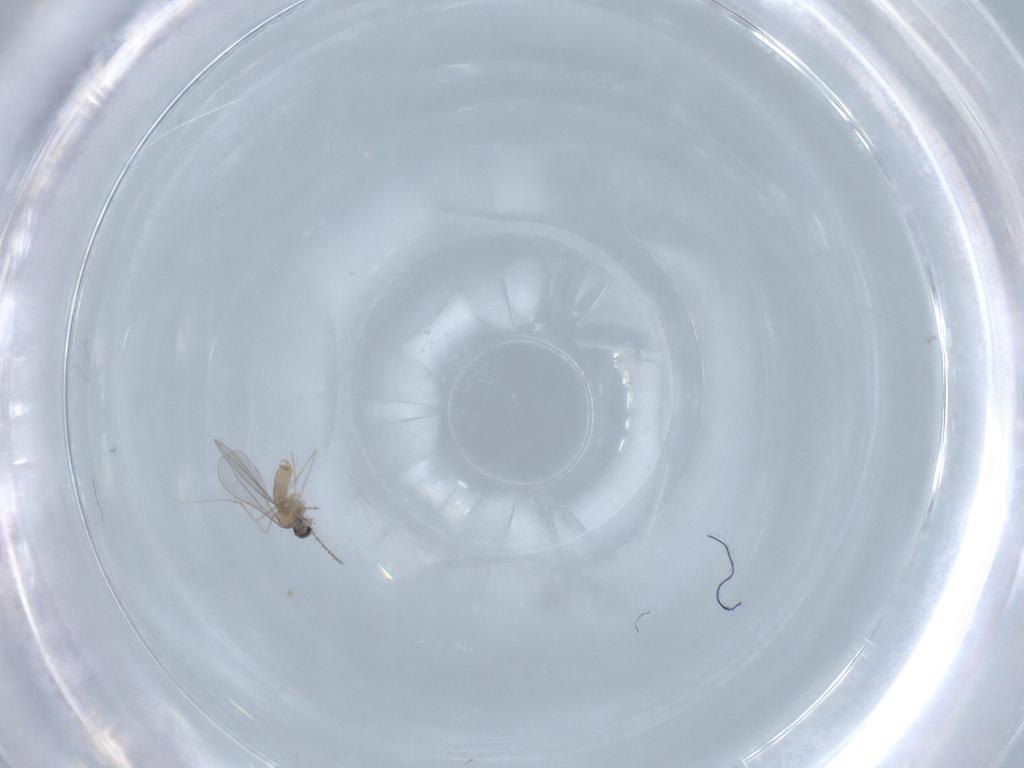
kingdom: Animalia
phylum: Arthropoda
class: Insecta
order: Diptera
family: Cecidomyiidae
